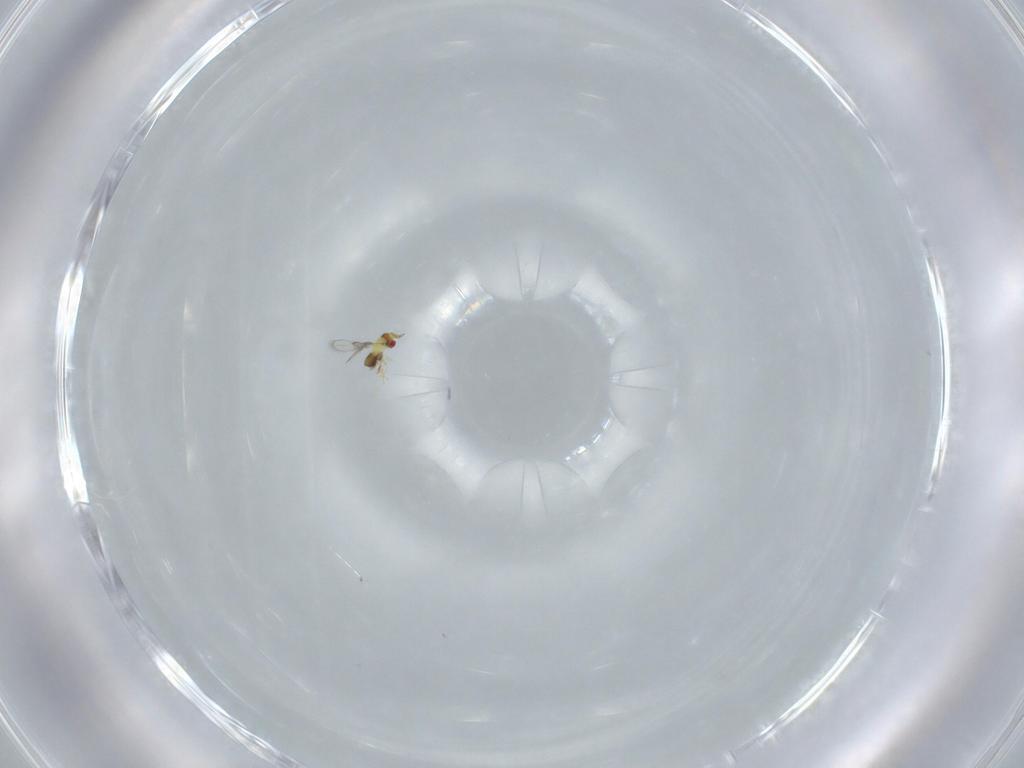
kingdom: Animalia
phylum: Arthropoda
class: Insecta
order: Hymenoptera
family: Trichogrammatidae
